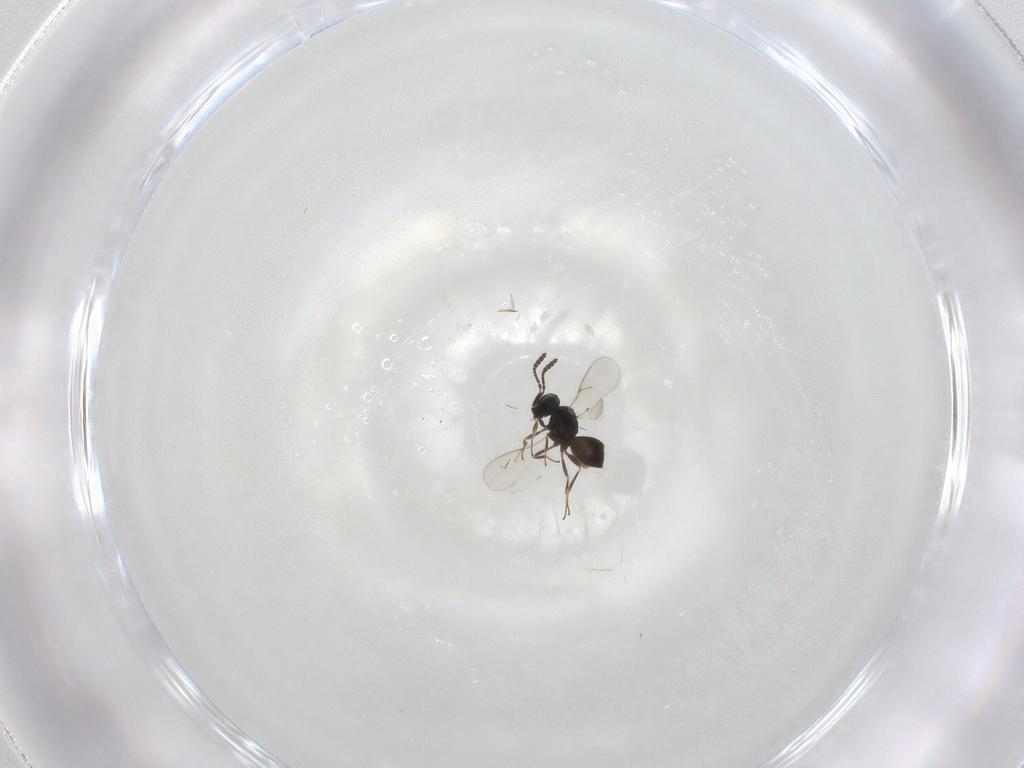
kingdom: Animalia
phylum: Arthropoda
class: Insecta
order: Hymenoptera
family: Scelionidae
